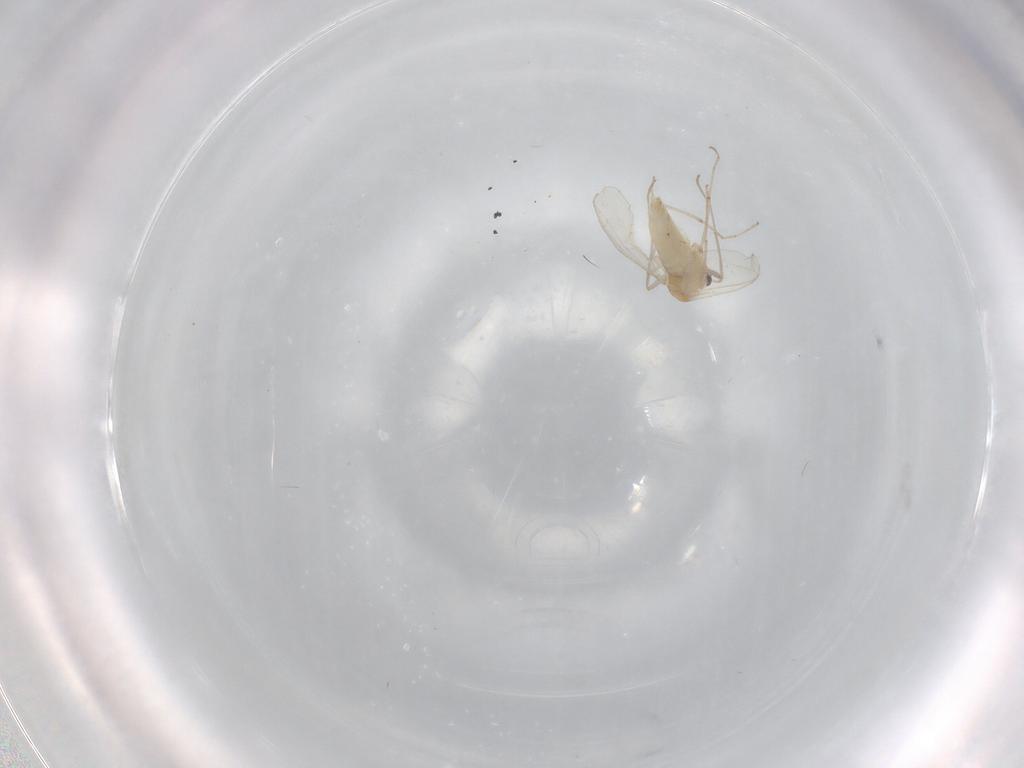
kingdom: Animalia
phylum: Arthropoda
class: Insecta
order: Diptera
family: Chironomidae
